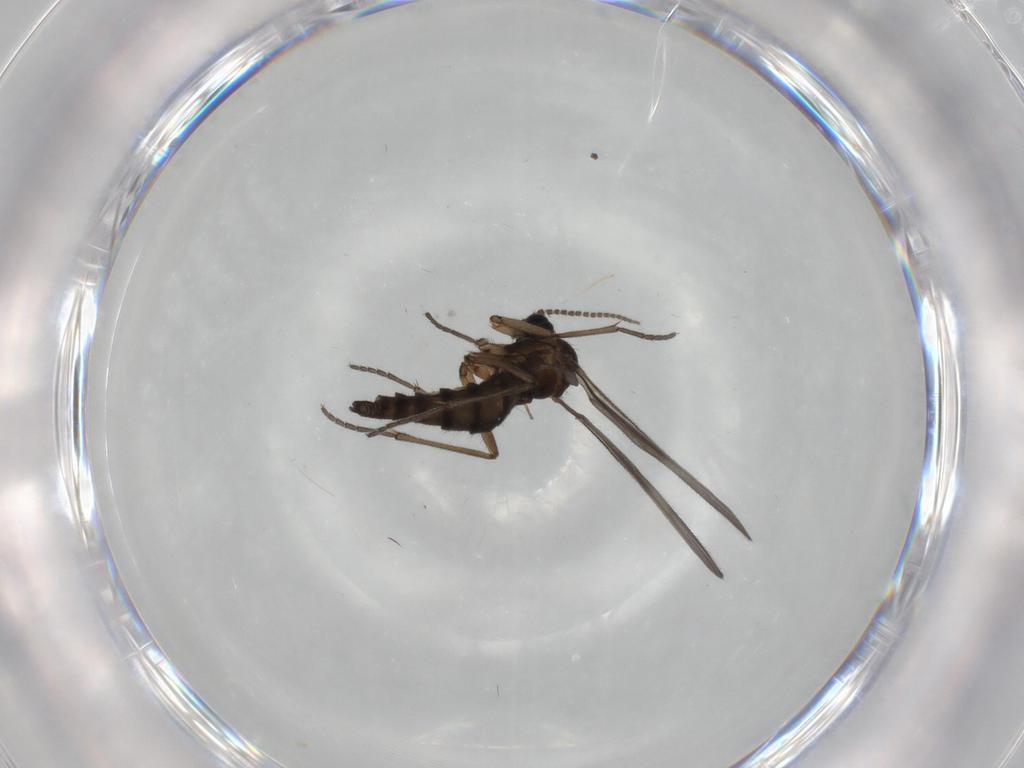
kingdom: Animalia
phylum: Arthropoda
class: Insecta
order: Diptera
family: Sciaridae
